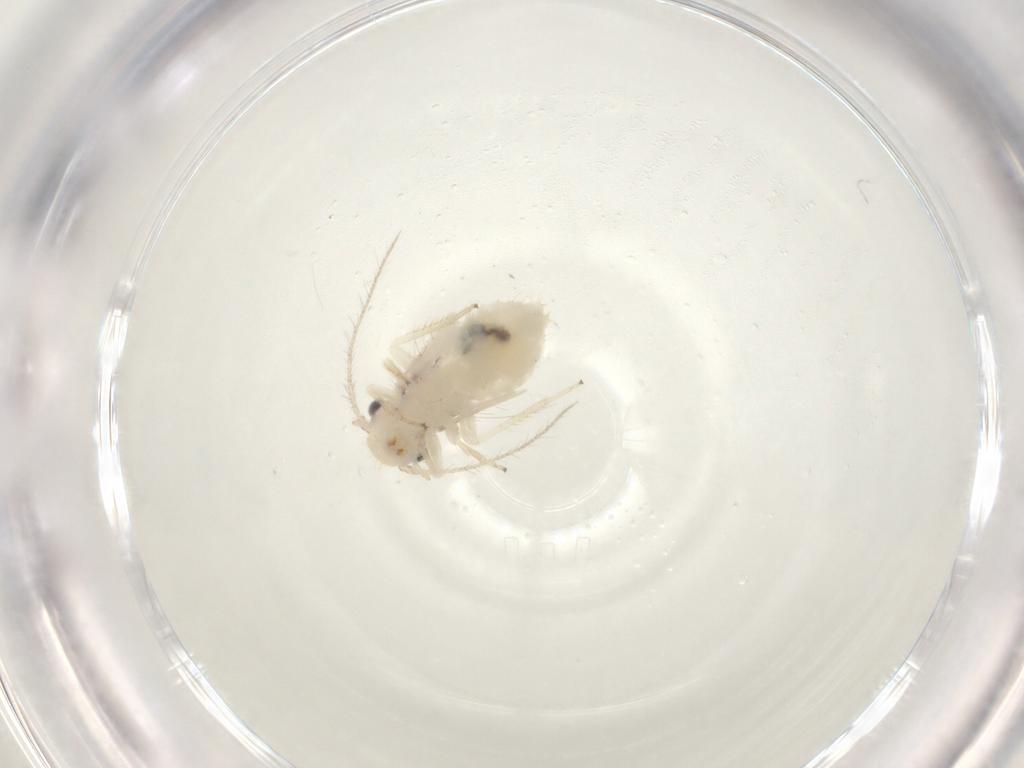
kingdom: Animalia
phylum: Arthropoda
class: Insecta
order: Psocodea
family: Pseudocaeciliidae
